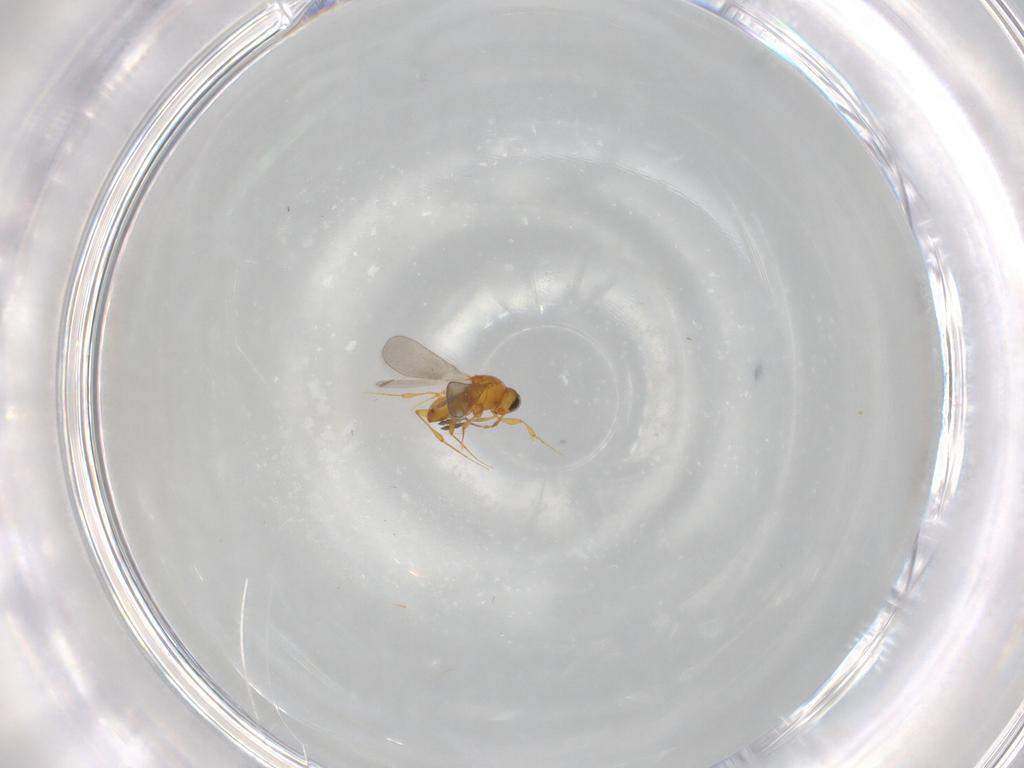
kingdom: Animalia
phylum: Arthropoda
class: Insecta
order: Hymenoptera
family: Platygastridae
